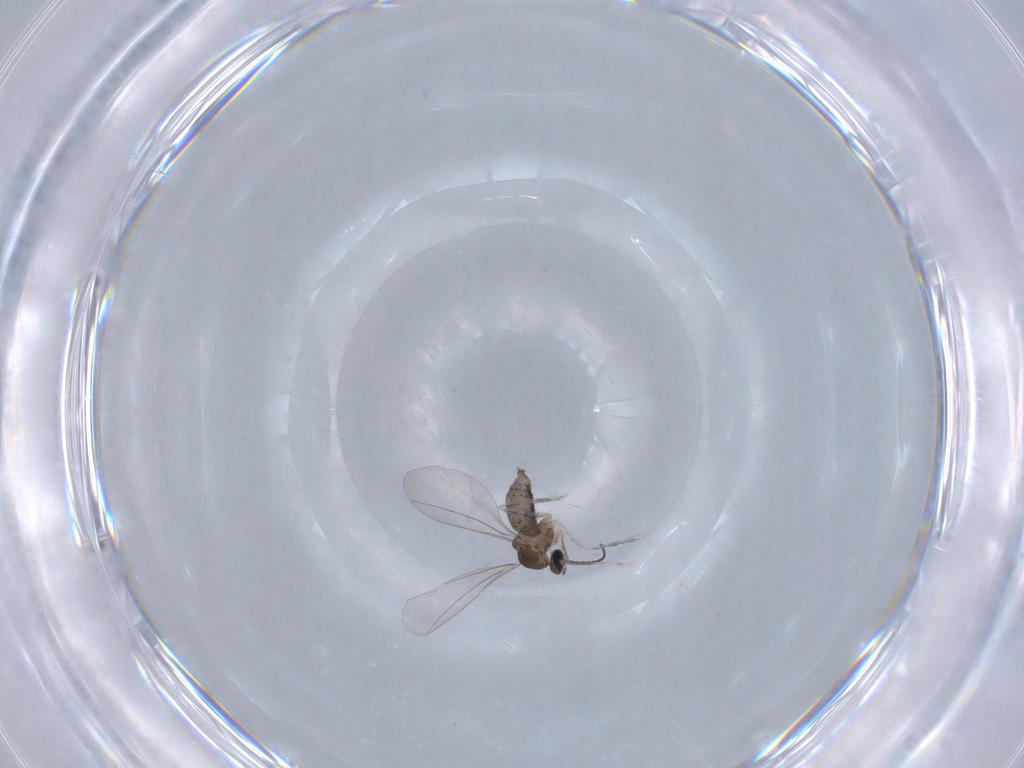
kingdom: Animalia
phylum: Arthropoda
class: Insecta
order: Diptera
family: Cecidomyiidae
